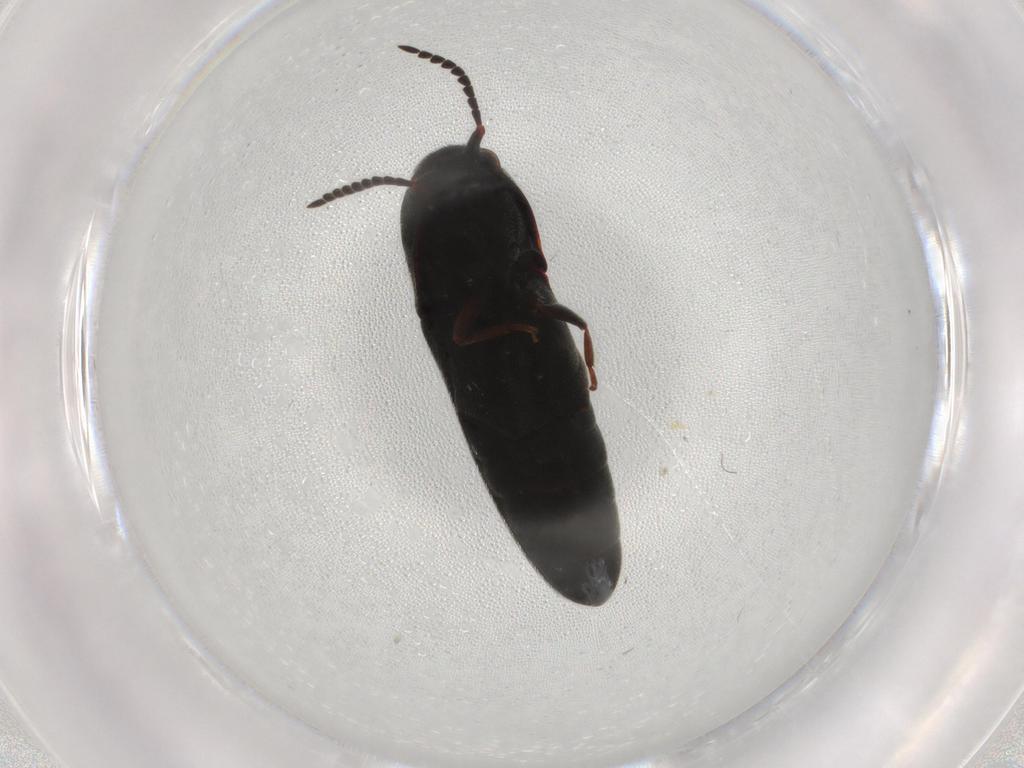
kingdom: Animalia
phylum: Arthropoda
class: Insecta
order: Coleoptera
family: Eucnemidae
